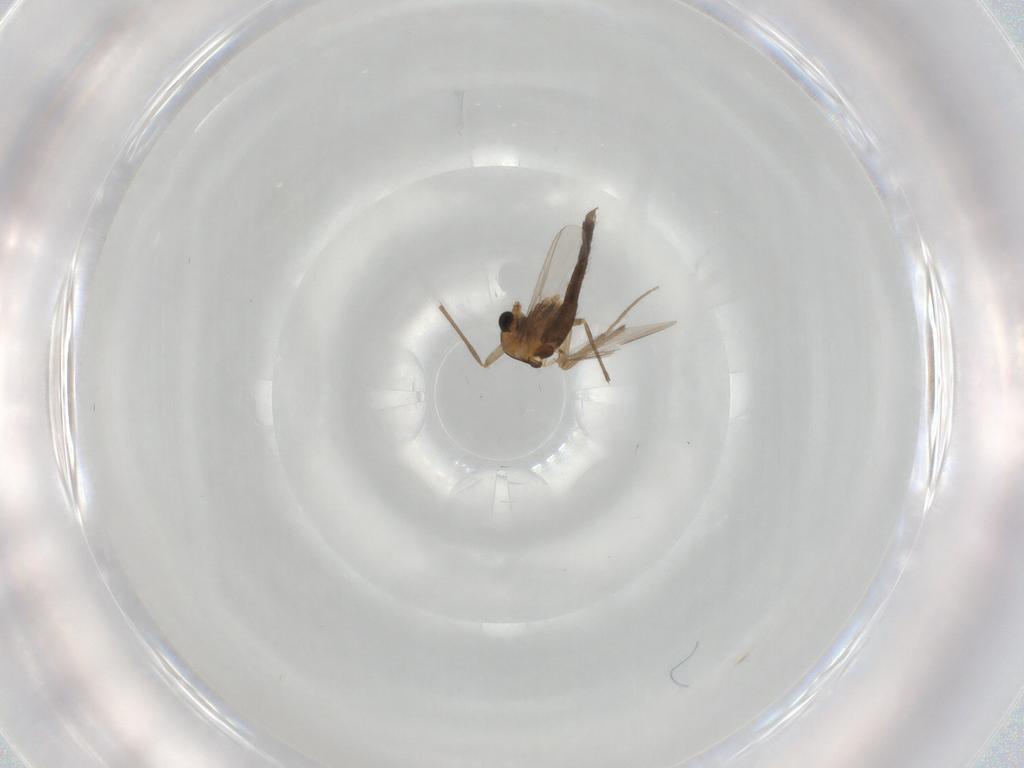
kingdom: Animalia
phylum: Arthropoda
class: Insecta
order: Diptera
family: Chironomidae
